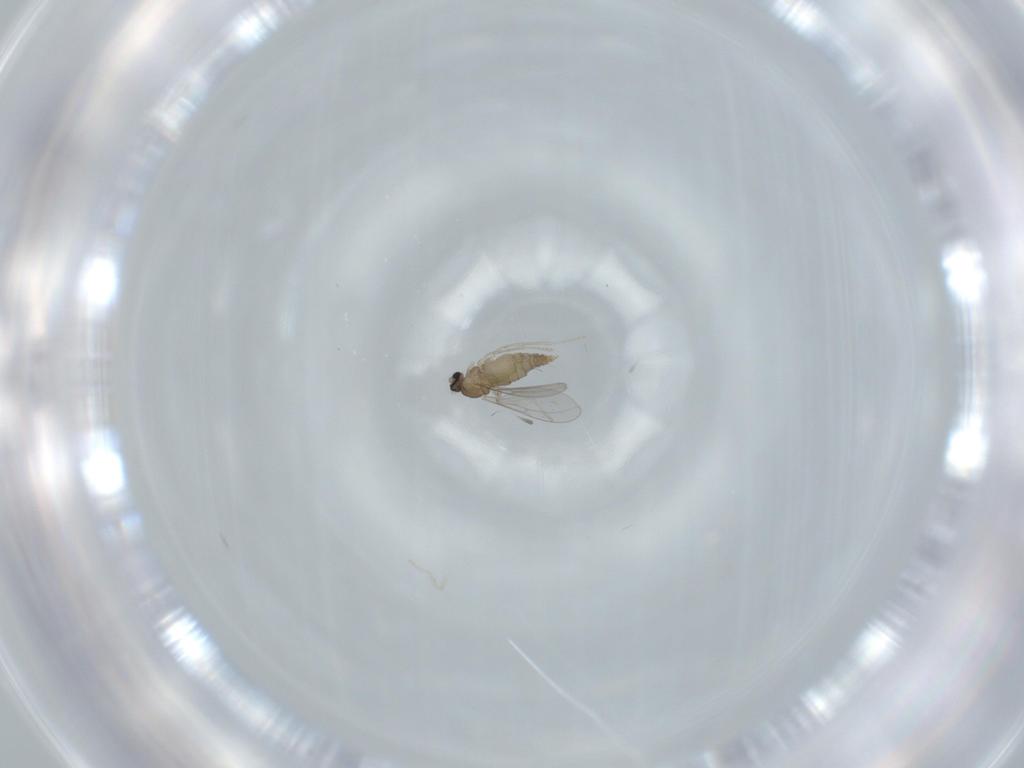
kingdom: Animalia
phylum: Arthropoda
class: Insecta
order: Diptera
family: Cecidomyiidae
